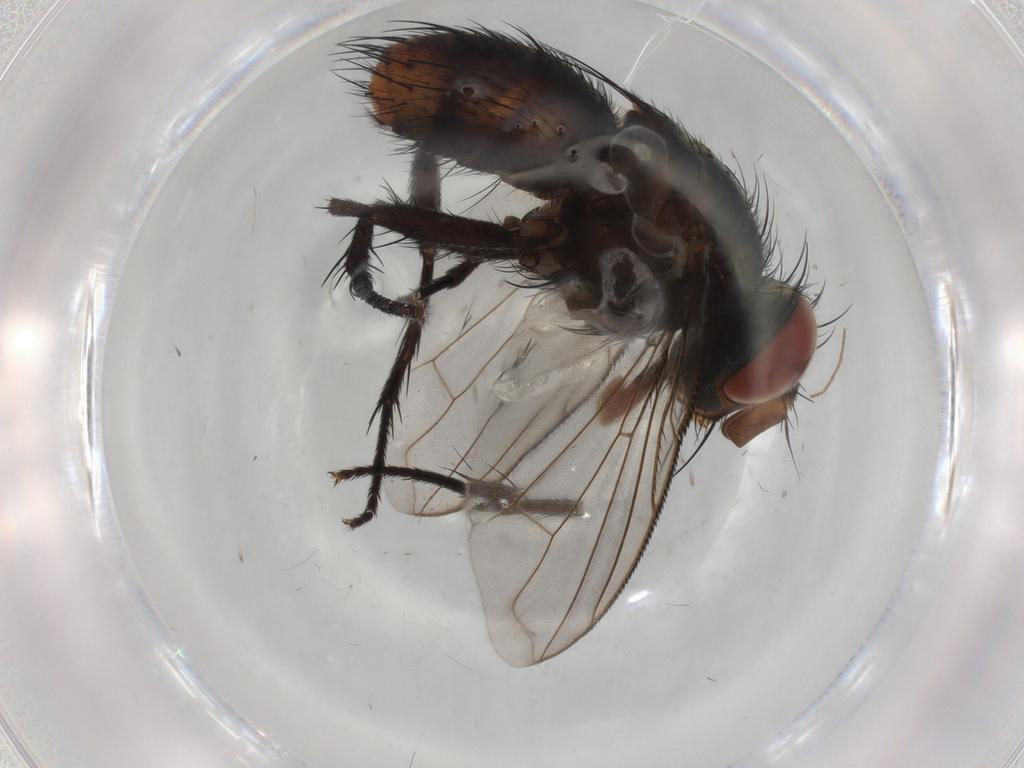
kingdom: Animalia
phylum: Arthropoda
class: Insecta
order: Diptera
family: Tachinidae
